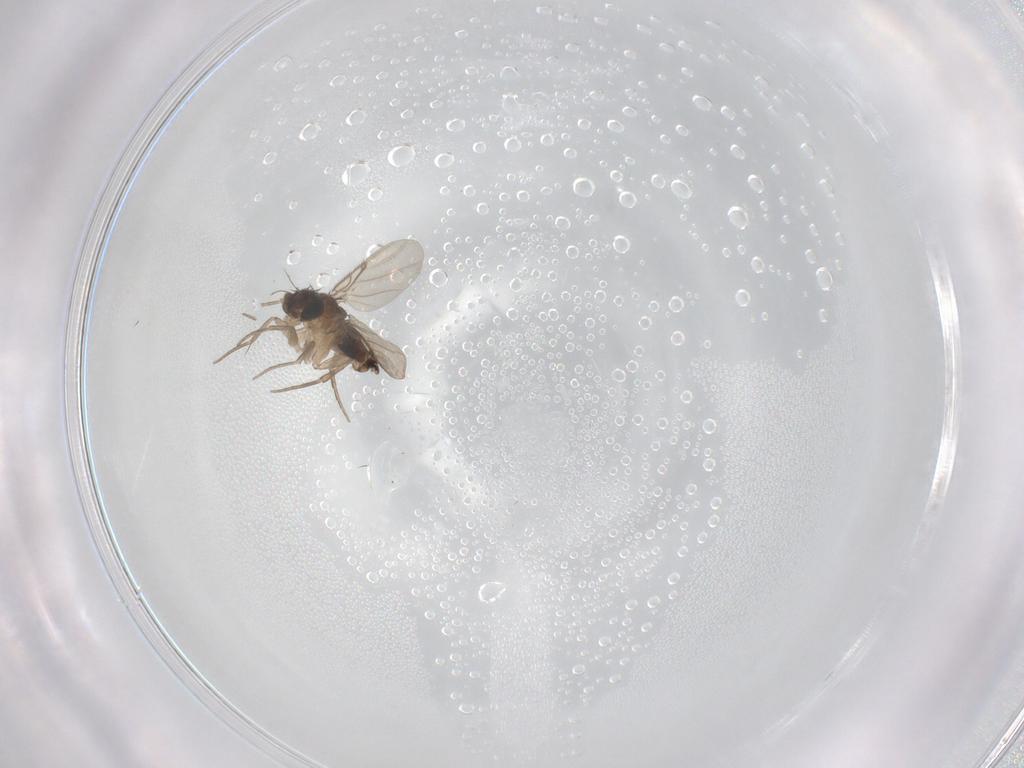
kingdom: Animalia
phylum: Arthropoda
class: Insecta
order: Diptera
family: Phoridae
